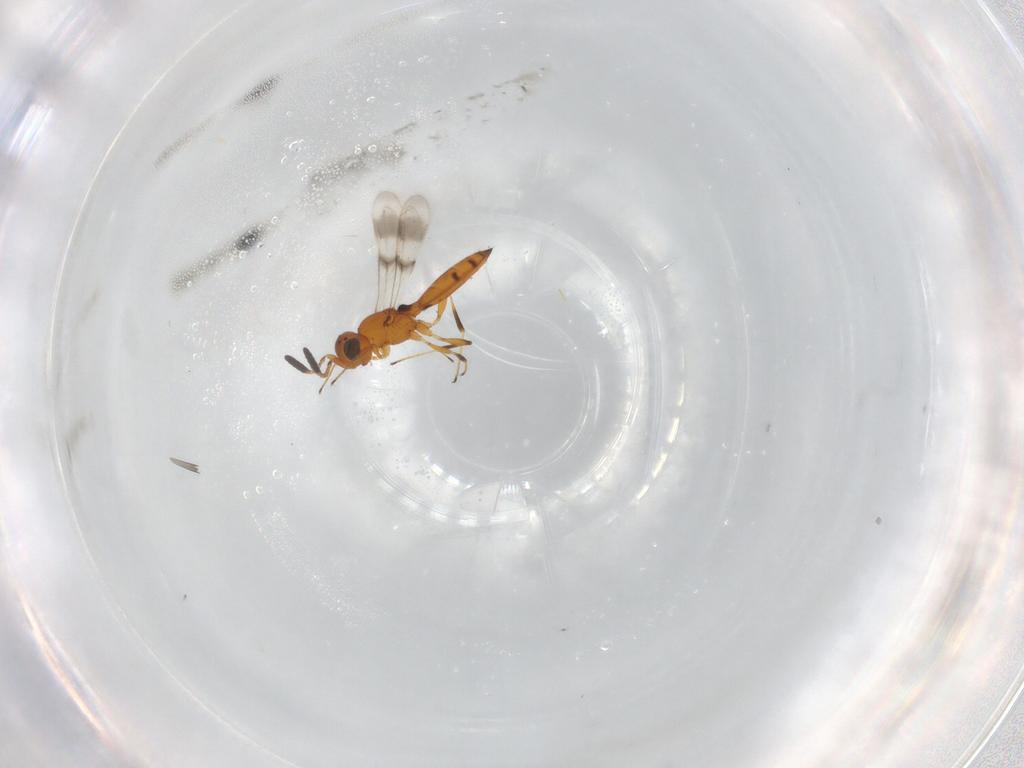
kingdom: Animalia
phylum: Arthropoda
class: Insecta
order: Hymenoptera
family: Aphelinidae
